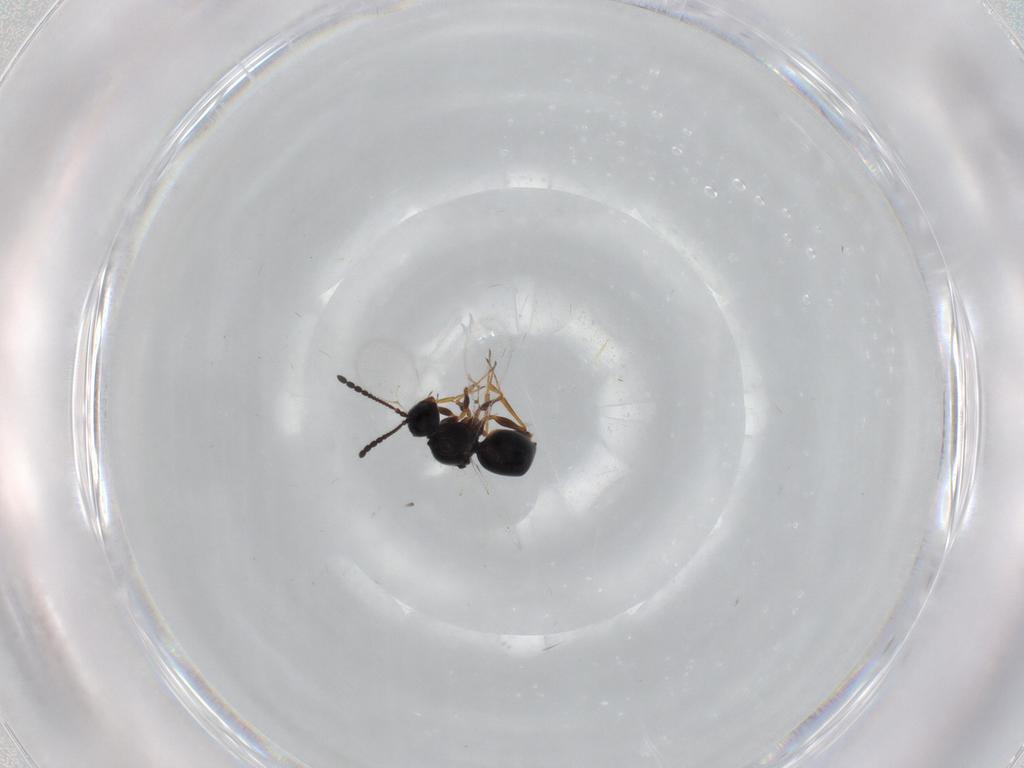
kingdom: Animalia
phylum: Arthropoda
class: Insecta
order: Hymenoptera
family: Figitidae
